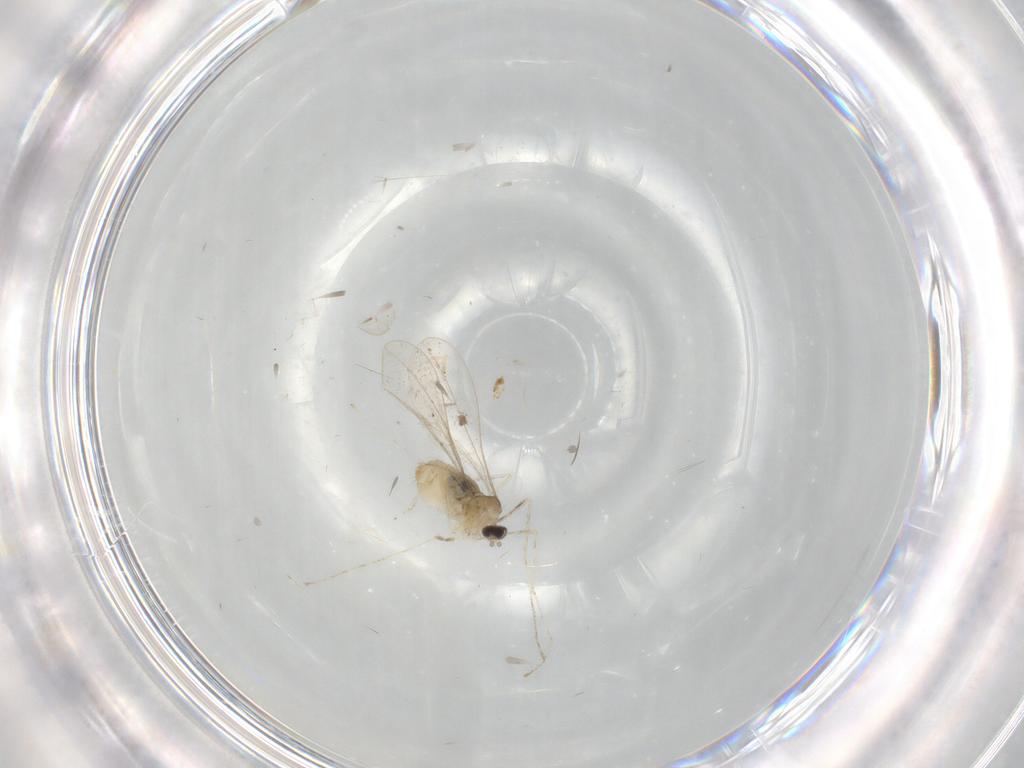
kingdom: Animalia
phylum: Arthropoda
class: Insecta
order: Diptera
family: Cecidomyiidae
